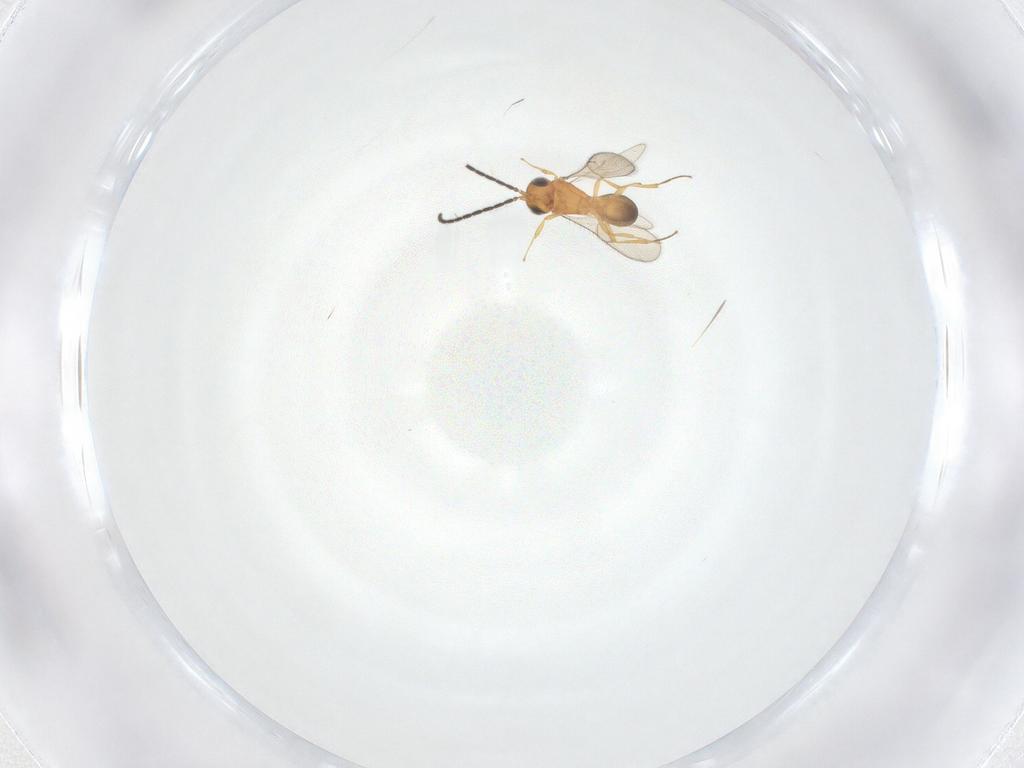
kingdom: Animalia
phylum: Arthropoda
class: Insecta
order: Hymenoptera
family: Scelionidae
